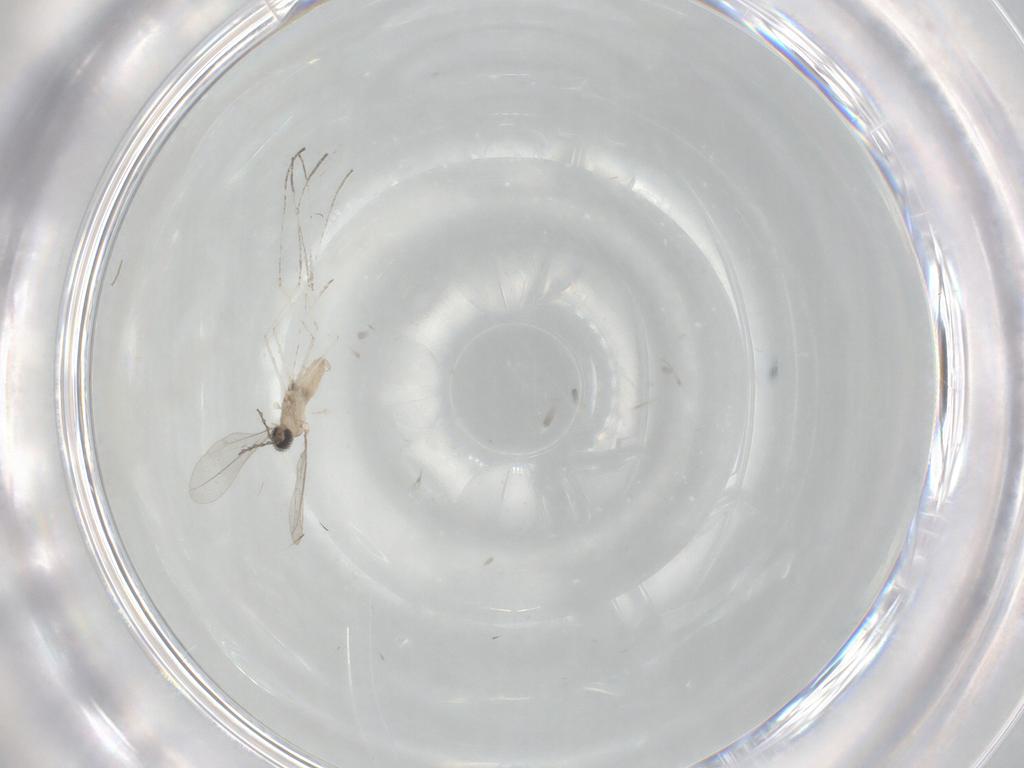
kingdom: Animalia
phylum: Arthropoda
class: Insecta
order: Diptera
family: Cecidomyiidae
